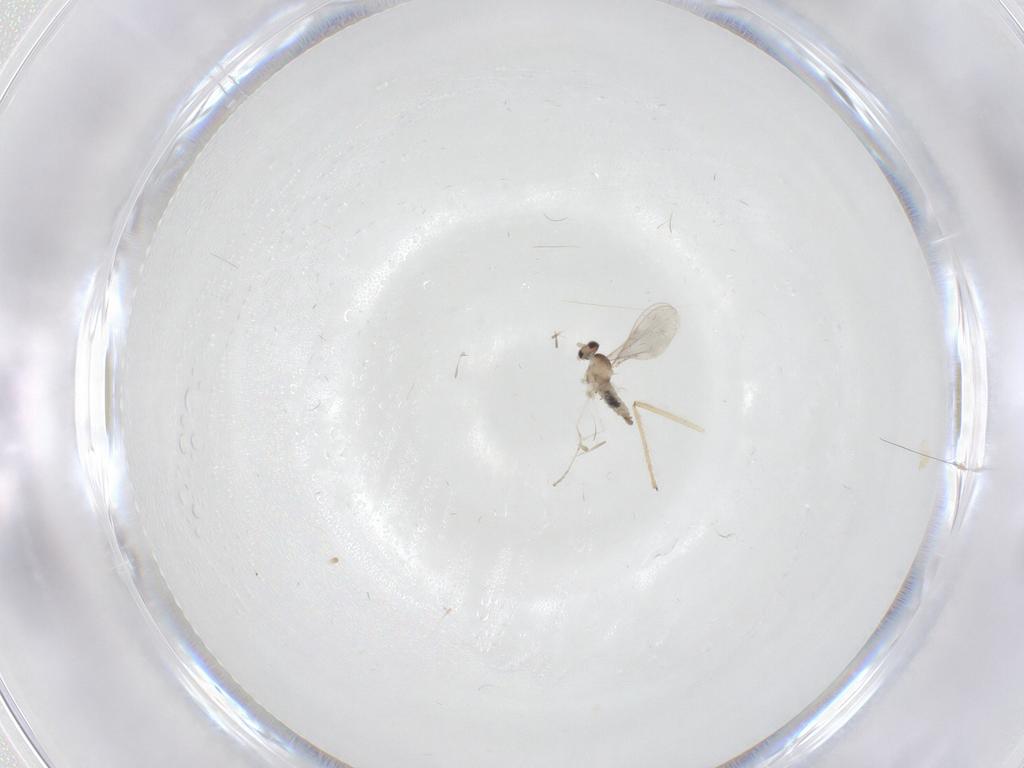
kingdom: Animalia
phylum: Arthropoda
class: Insecta
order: Diptera
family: Cecidomyiidae
